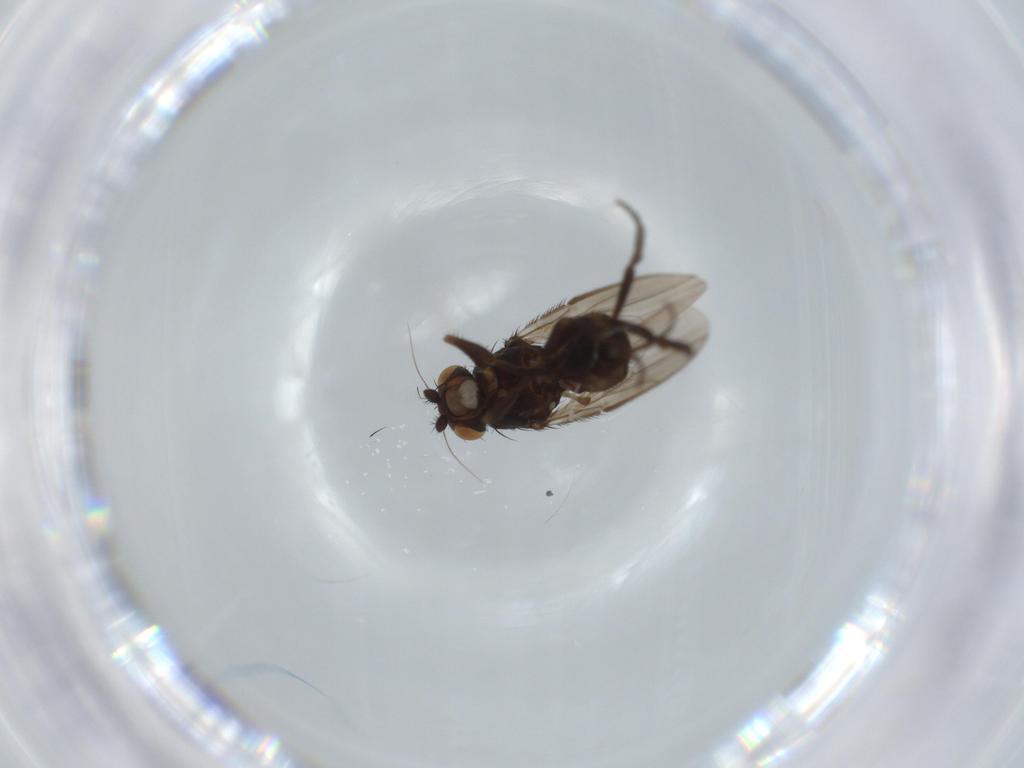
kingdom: Animalia
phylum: Arthropoda
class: Insecta
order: Diptera
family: Sphaeroceridae
